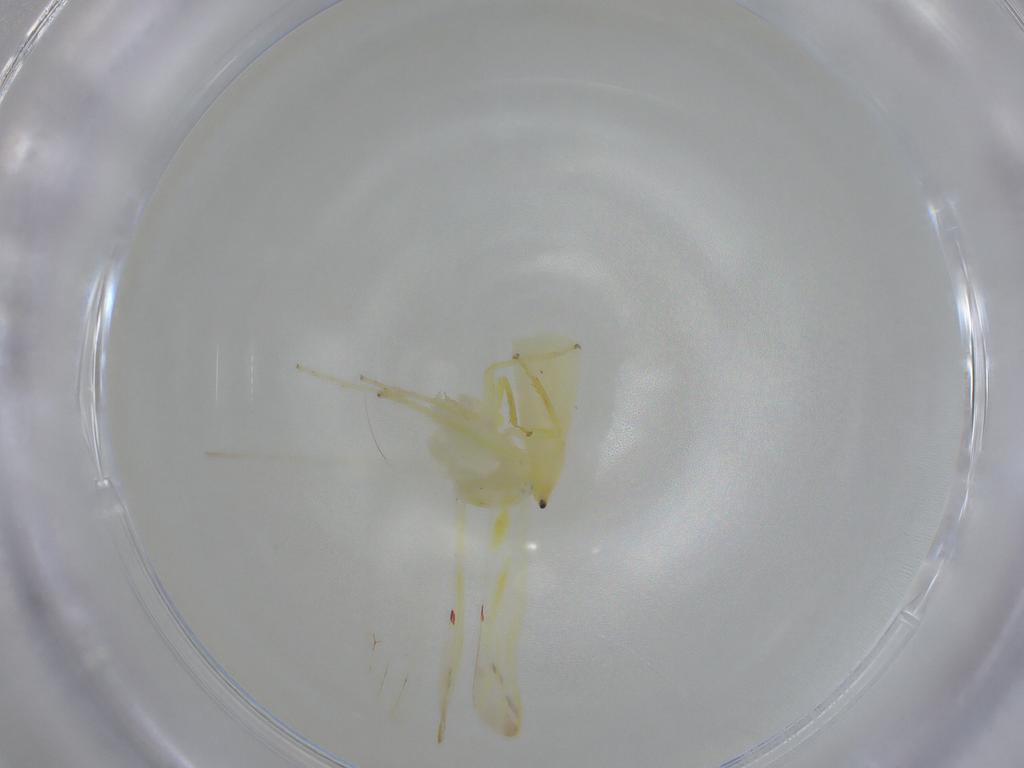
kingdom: Animalia
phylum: Arthropoda
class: Insecta
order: Hemiptera
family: Cicadellidae
